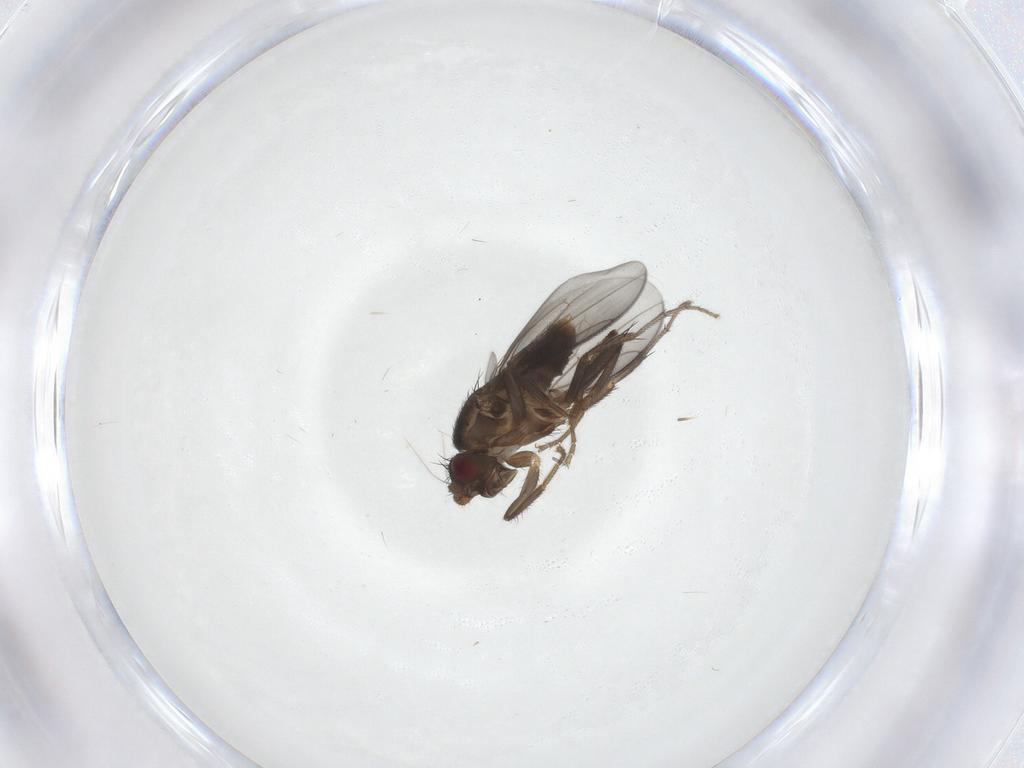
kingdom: Animalia
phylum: Arthropoda
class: Insecta
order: Diptera
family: Sphaeroceridae
